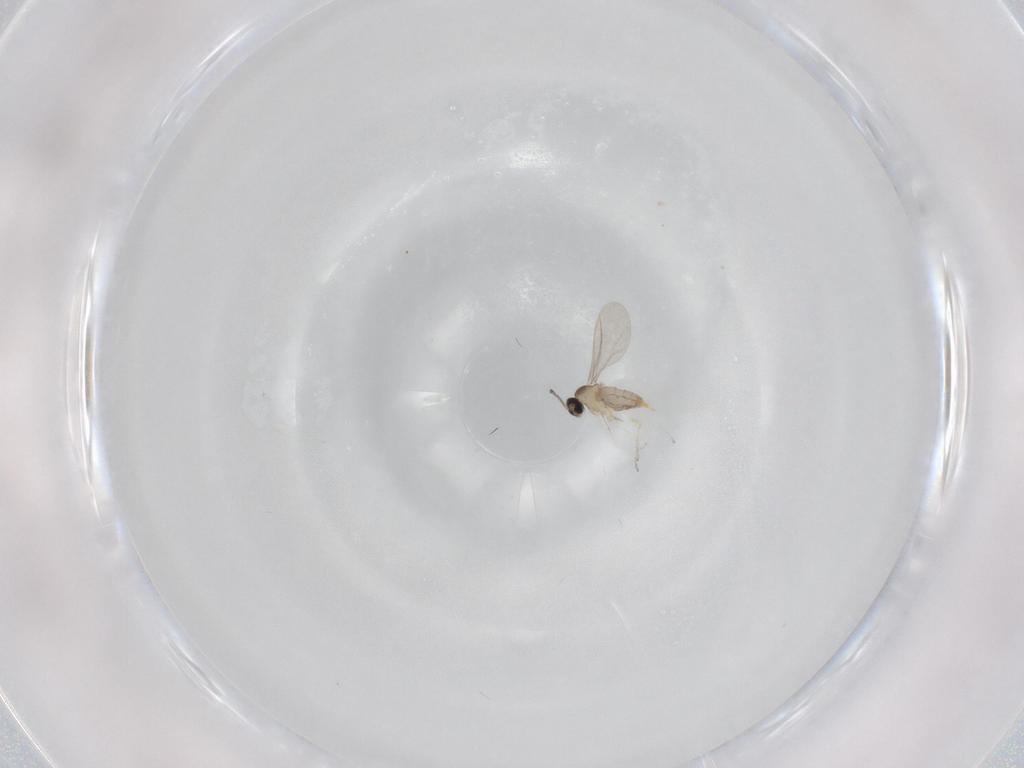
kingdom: Animalia
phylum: Arthropoda
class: Insecta
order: Diptera
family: Cecidomyiidae
